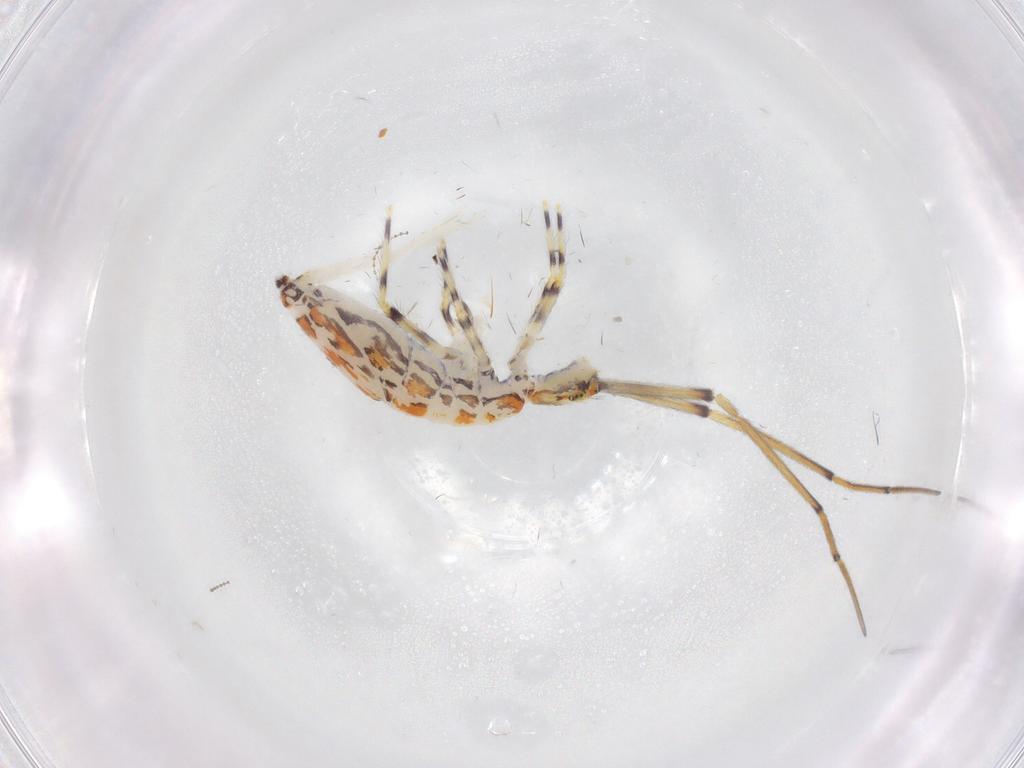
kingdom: Animalia
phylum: Arthropoda
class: Collembola
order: Entomobryomorpha
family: Entomobryidae
